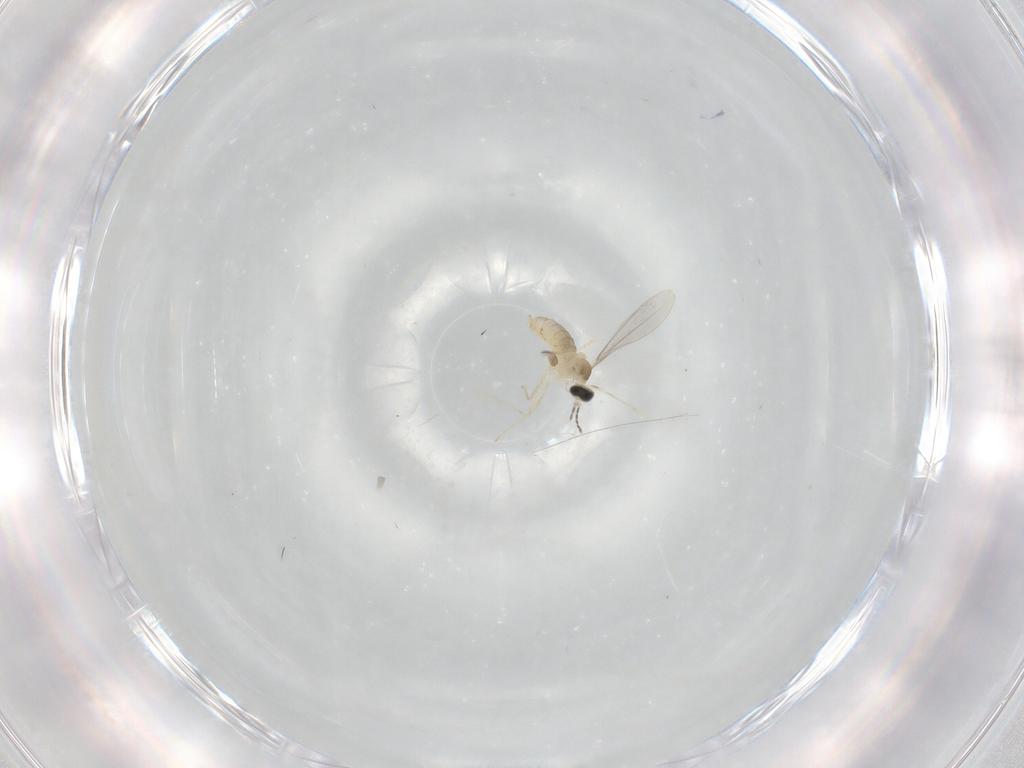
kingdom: Animalia
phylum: Arthropoda
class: Insecta
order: Diptera
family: Cecidomyiidae
